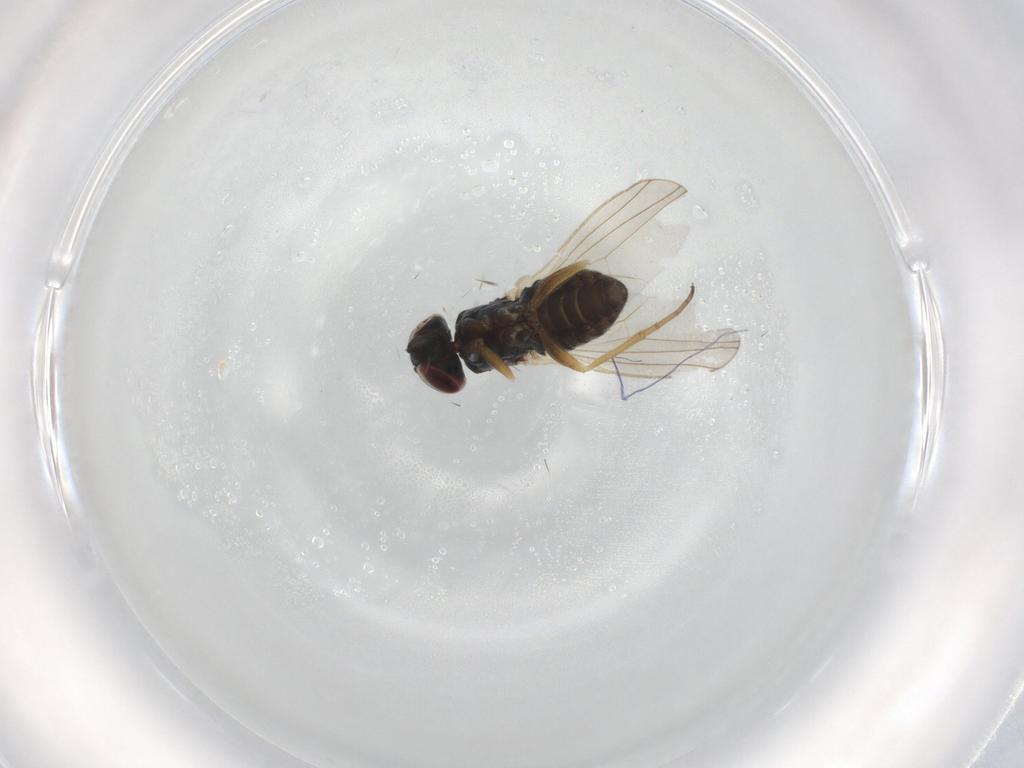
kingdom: Animalia
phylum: Arthropoda
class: Insecta
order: Diptera
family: Dolichopodidae
